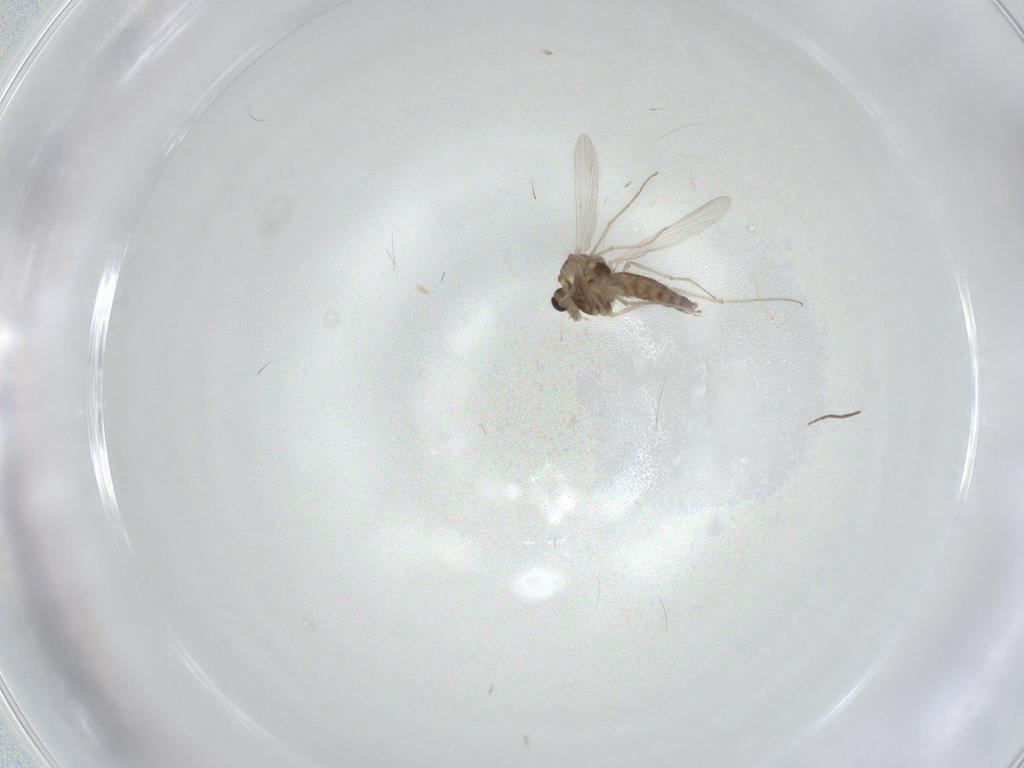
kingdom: Animalia
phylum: Arthropoda
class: Insecta
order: Diptera
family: Chironomidae
